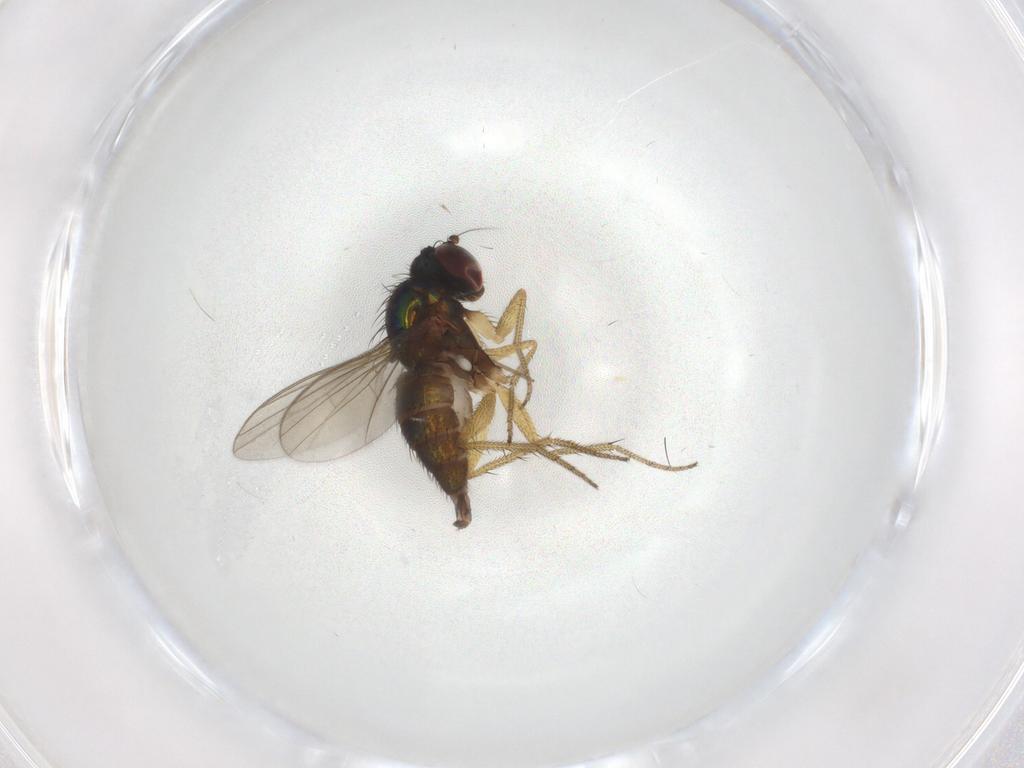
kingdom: Animalia
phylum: Arthropoda
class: Insecta
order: Diptera
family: Dolichopodidae
